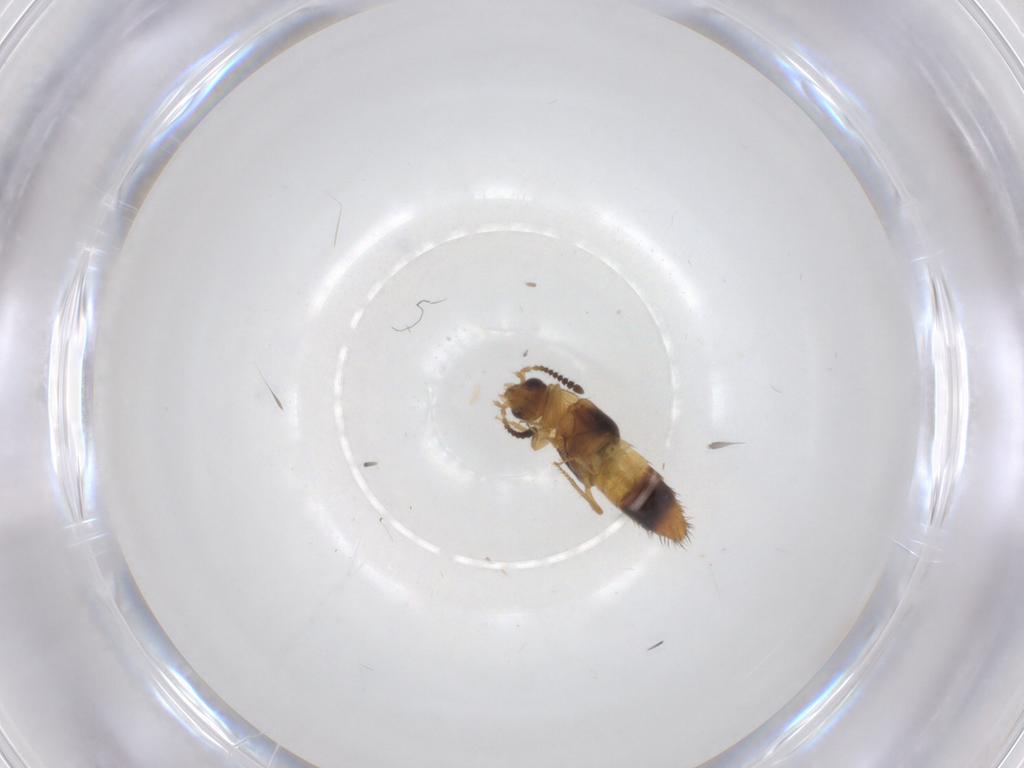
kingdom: Animalia
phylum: Arthropoda
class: Insecta
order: Coleoptera
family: Staphylinidae
